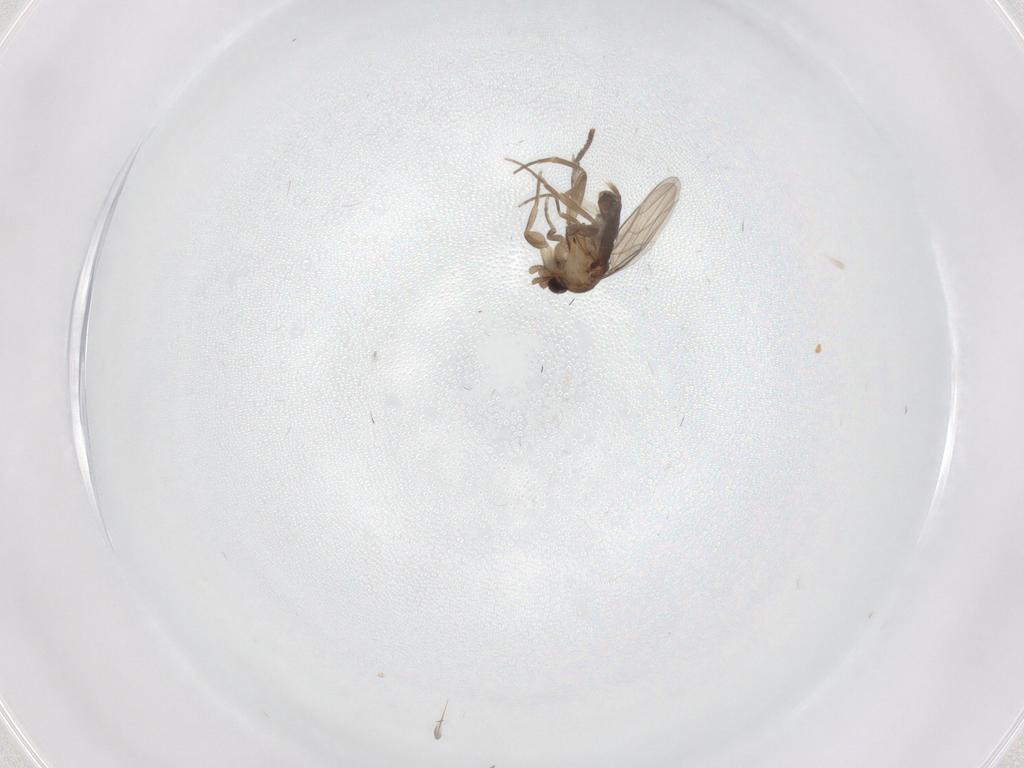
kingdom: Animalia
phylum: Arthropoda
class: Insecta
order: Diptera
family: Phoridae
